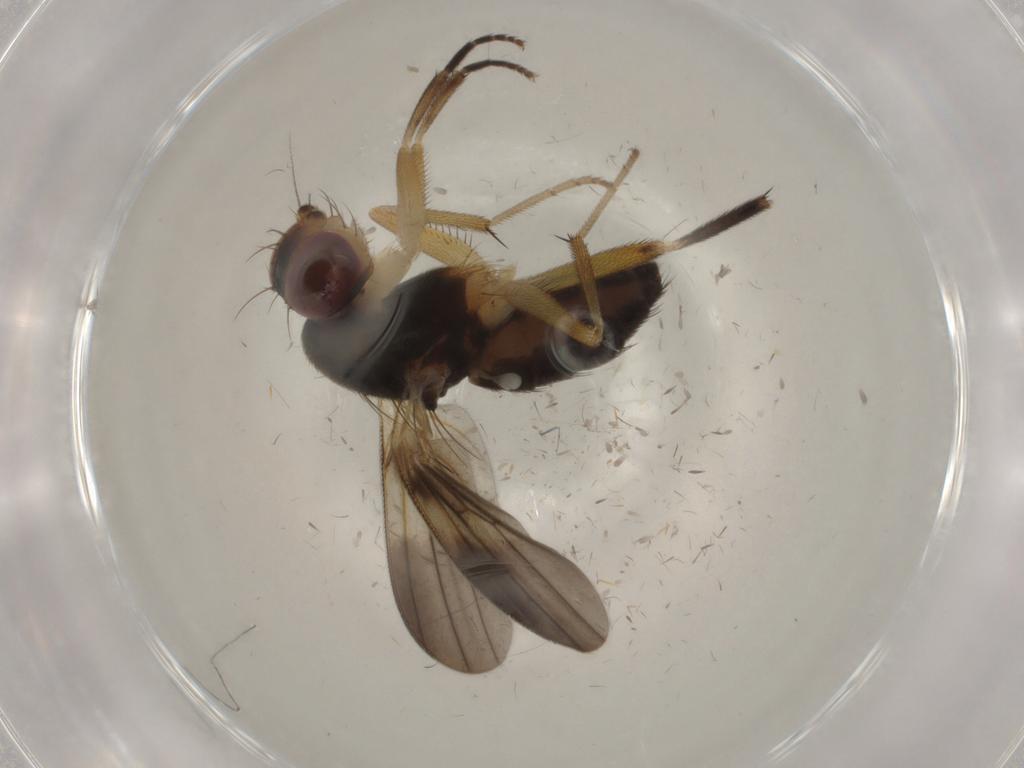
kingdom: Animalia
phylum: Arthropoda
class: Insecta
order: Diptera
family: Clusiidae
